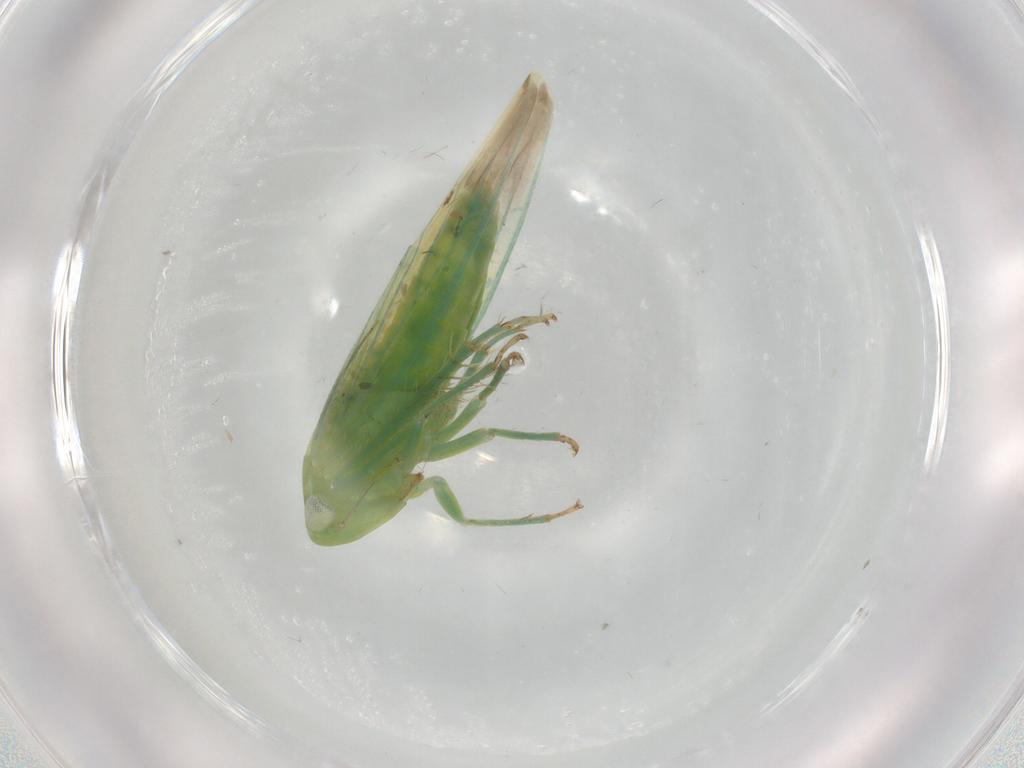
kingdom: Animalia
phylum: Arthropoda
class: Insecta
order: Hemiptera
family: Cicadellidae
